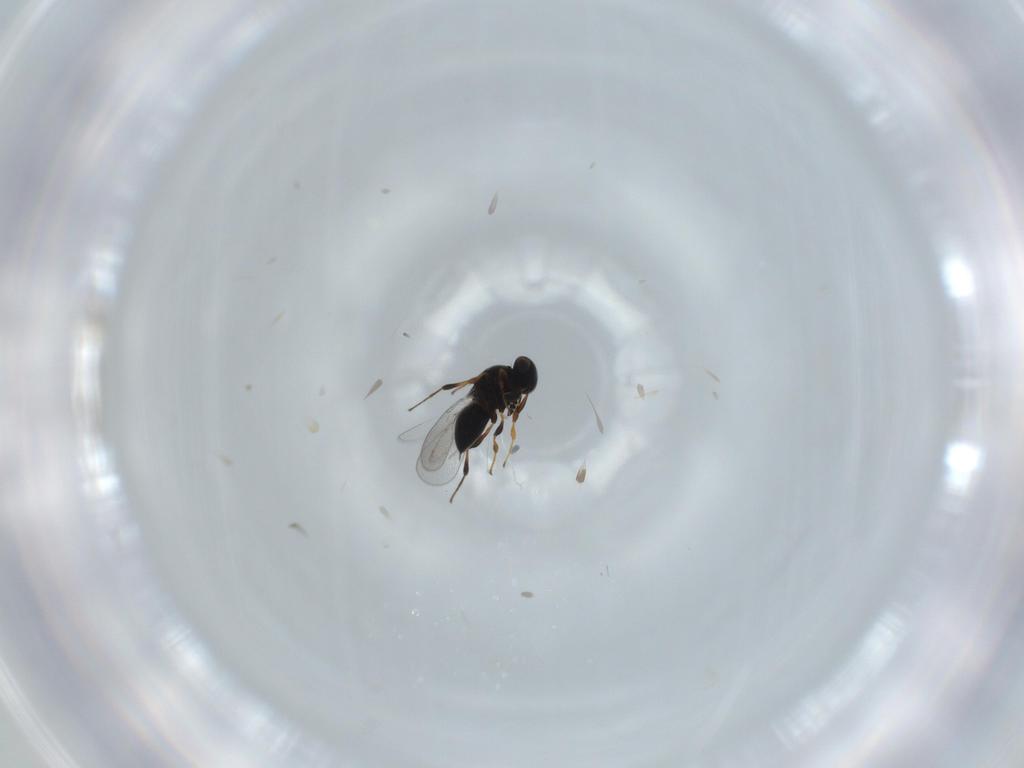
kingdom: Animalia
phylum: Arthropoda
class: Insecta
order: Hymenoptera
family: Platygastridae
